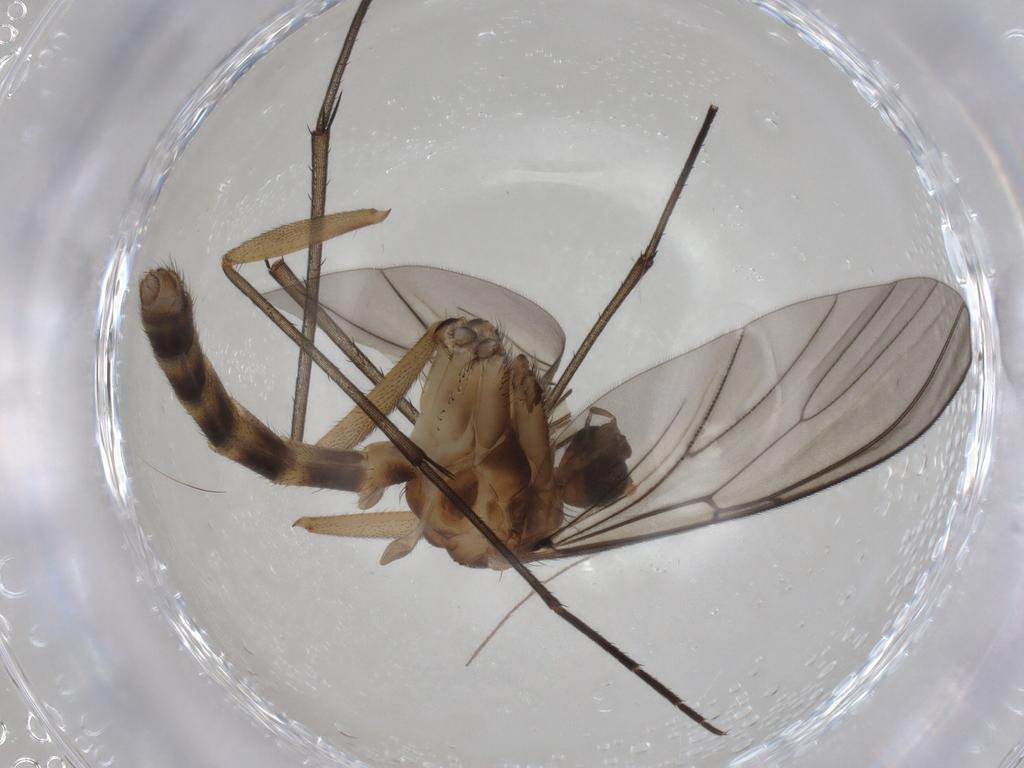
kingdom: Animalia
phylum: Arthropoda
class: Insecta
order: Diptera
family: Mycetophilidae
